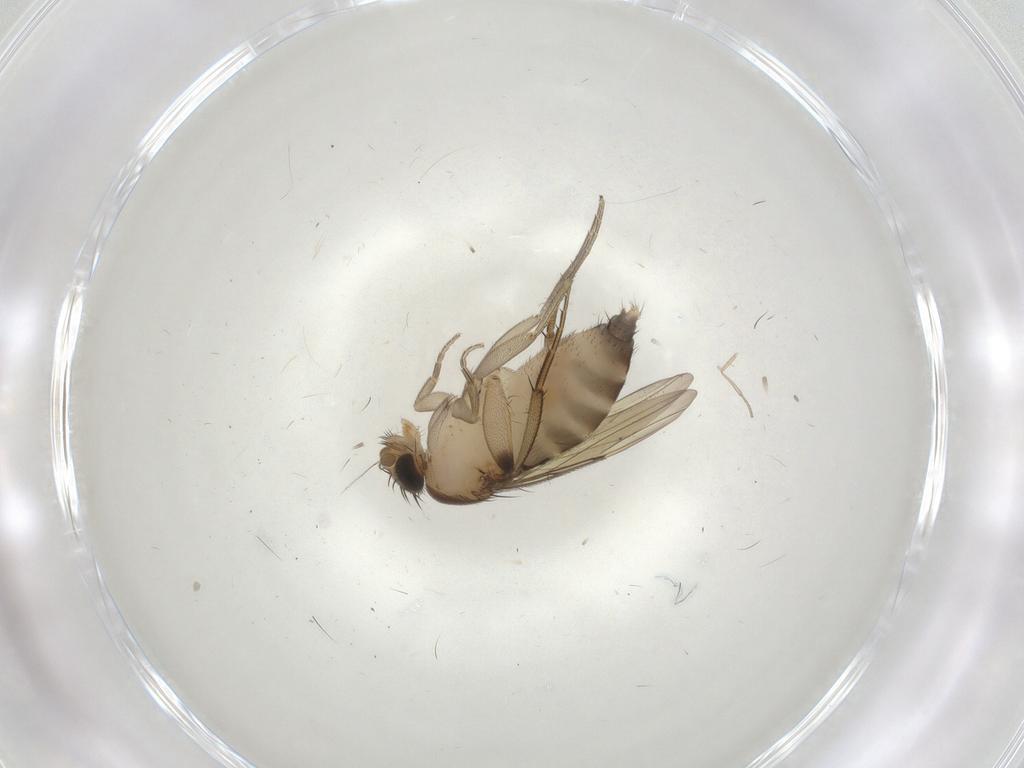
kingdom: Animalia
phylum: Arthropoda
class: Insecta
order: Diptera
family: Phoridae
